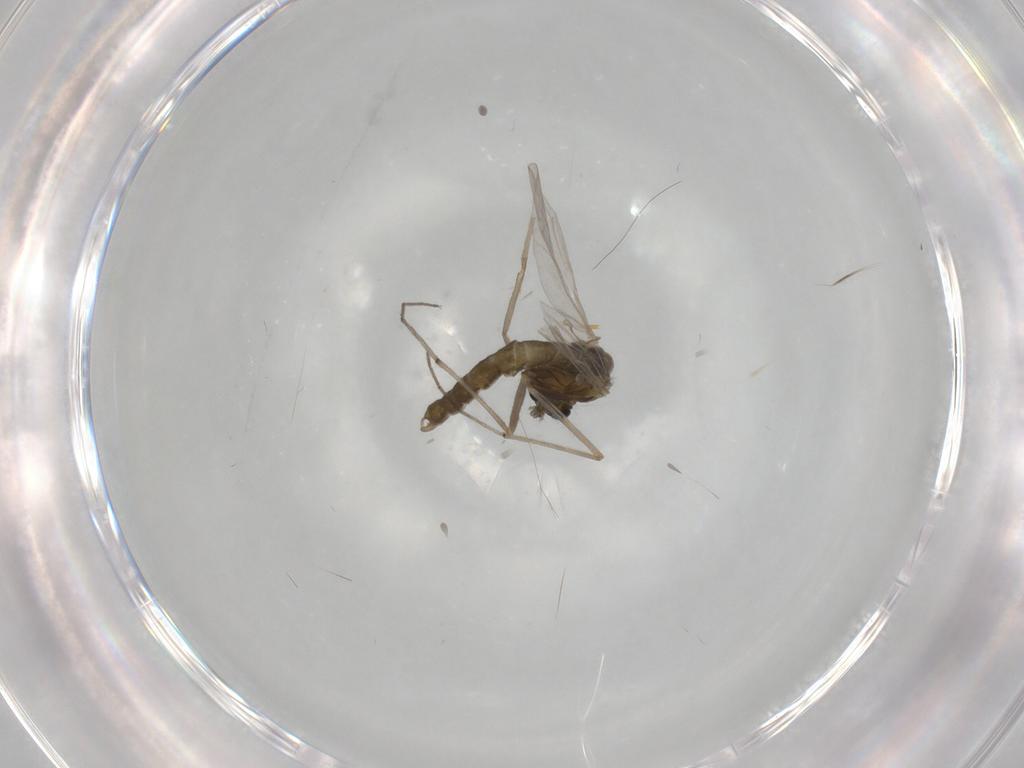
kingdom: Animalia
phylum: Arthropoda
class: Insecta
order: Diptera
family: Chironomidae
